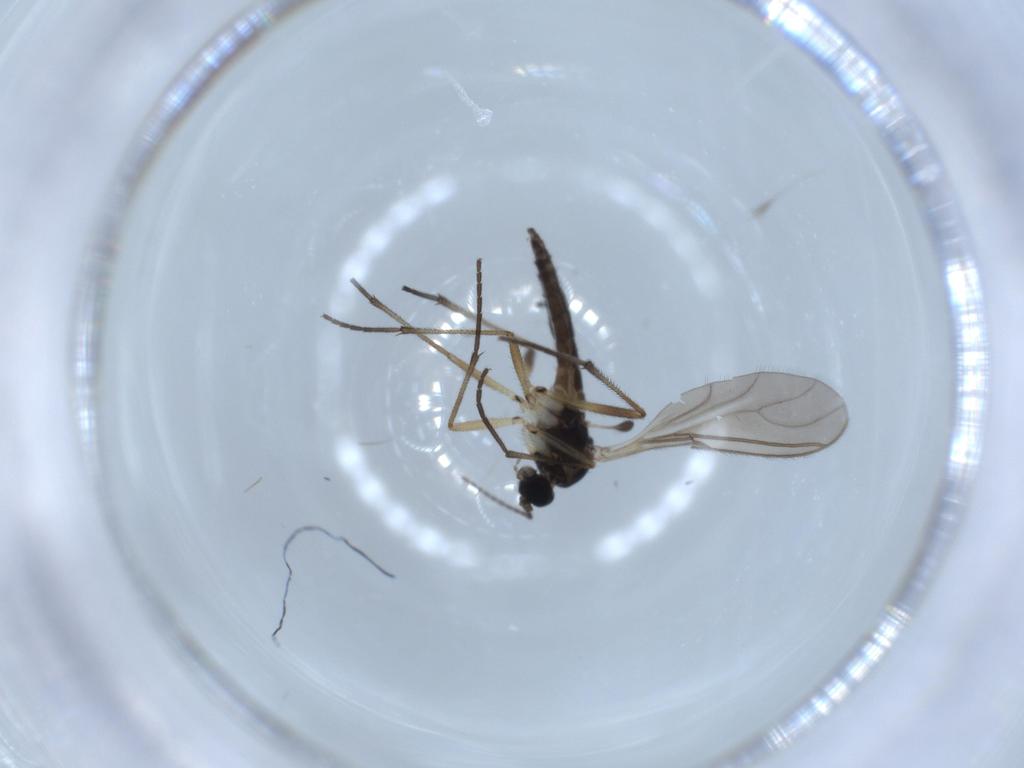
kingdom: Animalia
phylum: Arthropoda
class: Insecta
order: Diptera
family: Sciaridae
